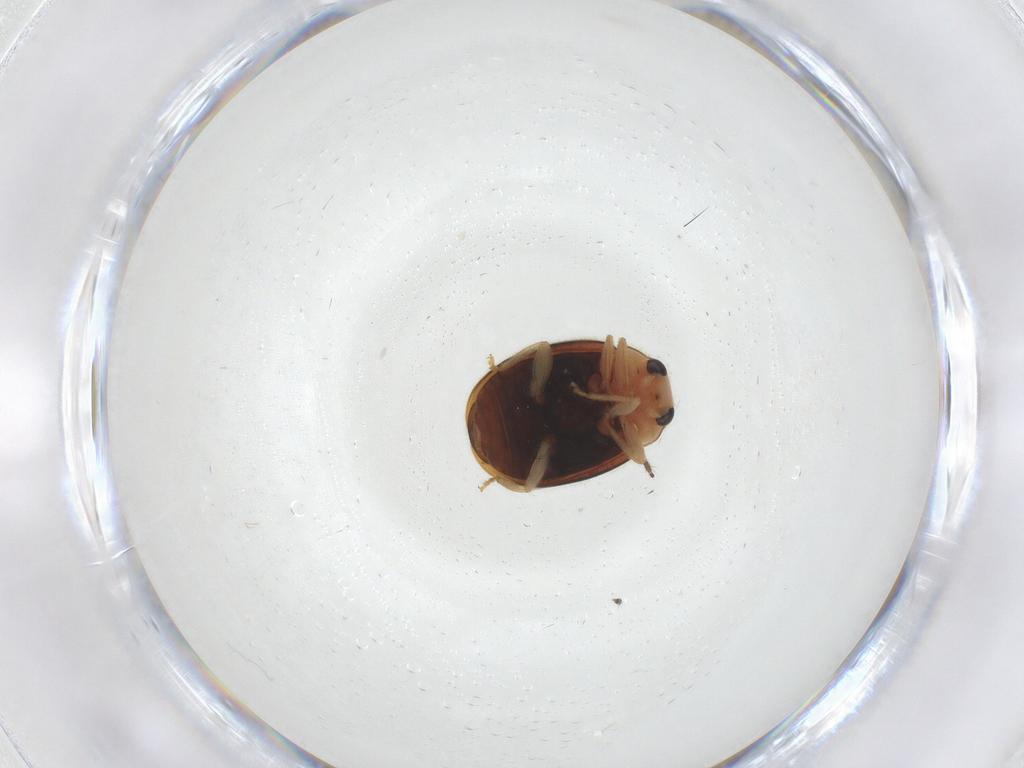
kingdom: Animalia
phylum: Arthropoda
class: Insecta
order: Coleoptera
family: Coccinellidae
